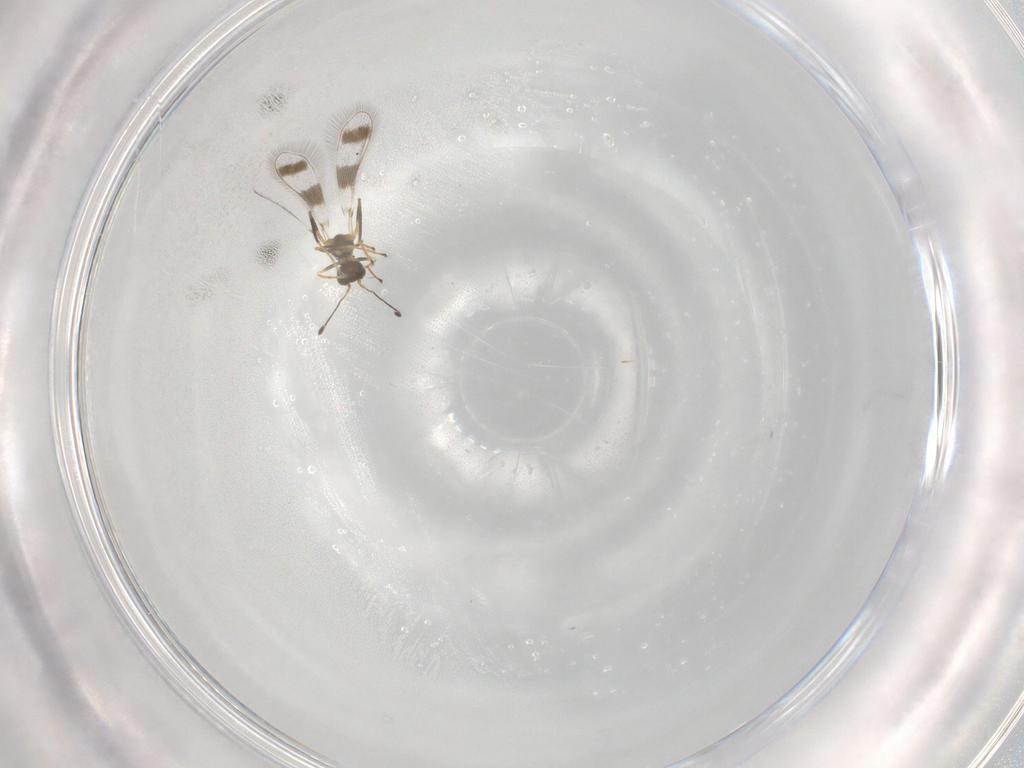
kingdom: Animalia
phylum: Arthropoda
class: Insecta
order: Hymenoptera
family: Mymaridae
